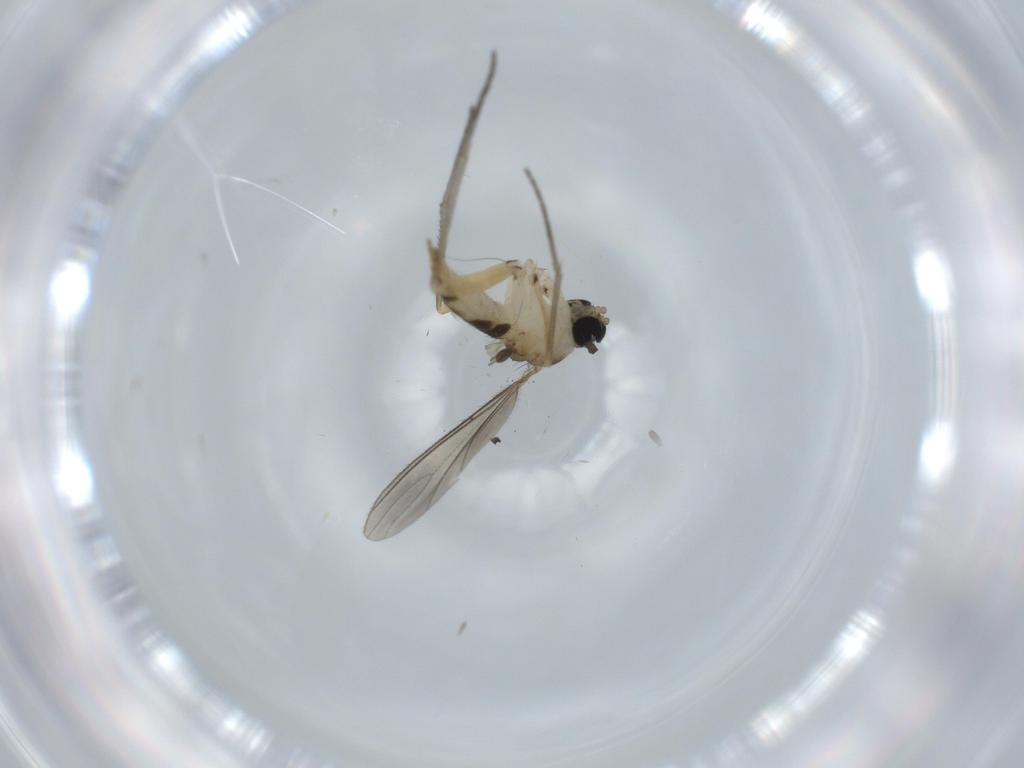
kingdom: Animalia
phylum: Arthropoda
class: Insecta
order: Diptera
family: Sciaridae
